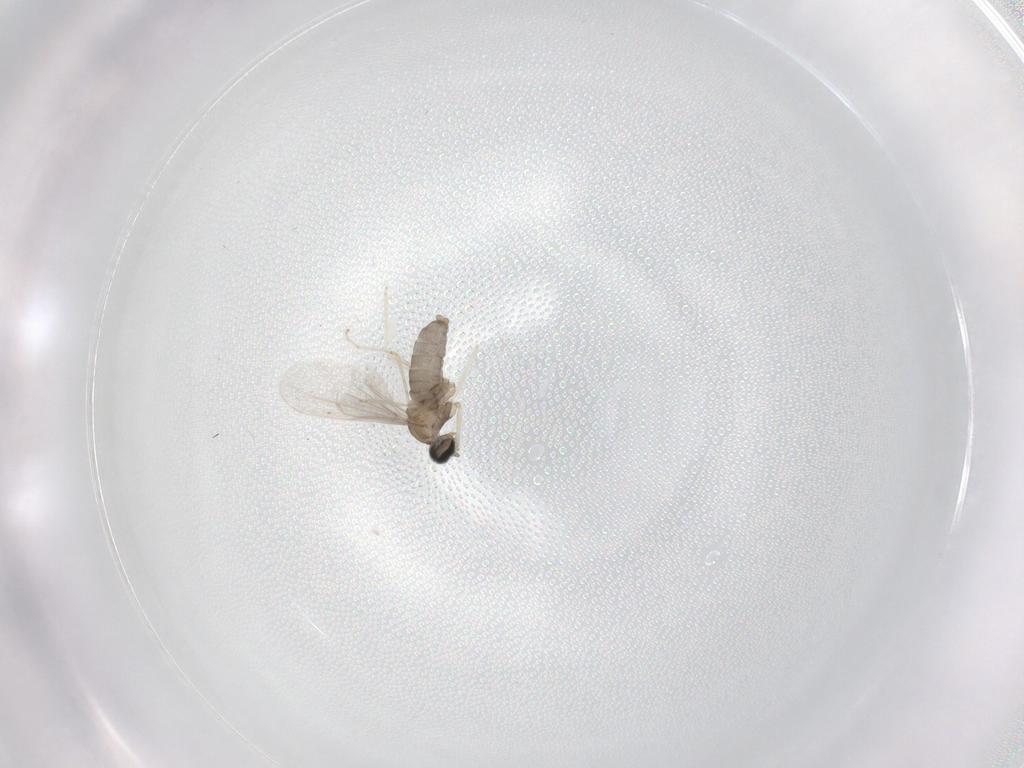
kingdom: Animalia
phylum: Arthropoda
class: Insecta
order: Diptera
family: Cecidomyiidae
